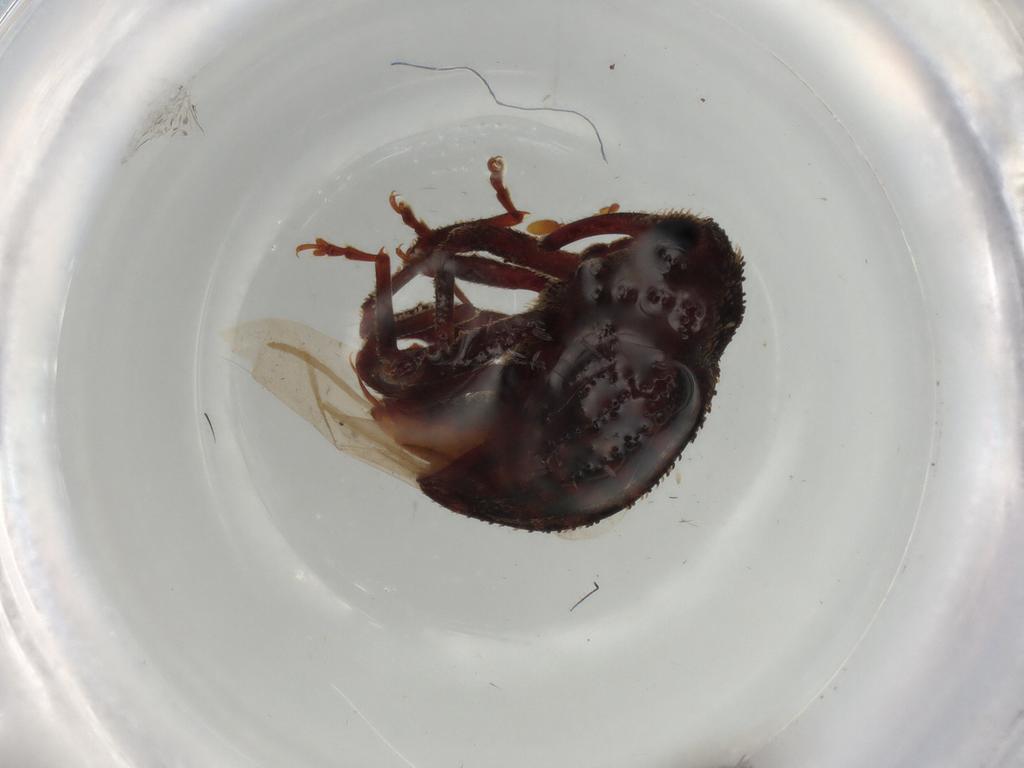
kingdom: Animalia
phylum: Arthropoda
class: Insecta
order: Coleoptera
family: Curculionidae
